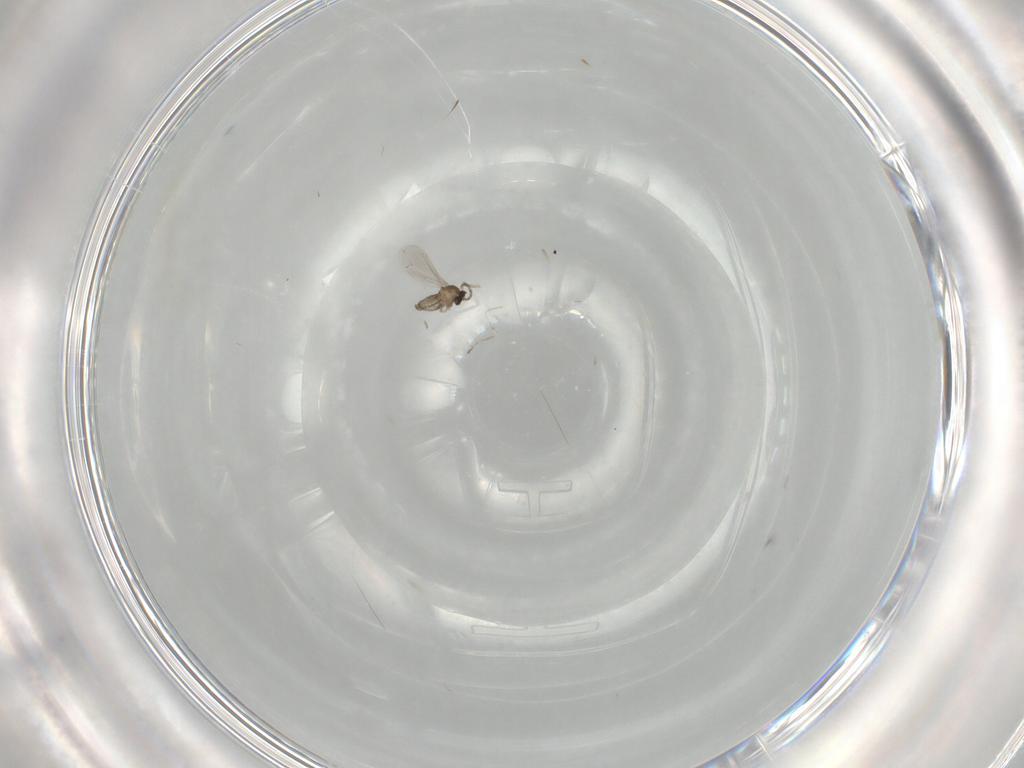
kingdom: Animalia
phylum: Arthropoda
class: Insecta
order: Diptera
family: Cecidomyiidae
